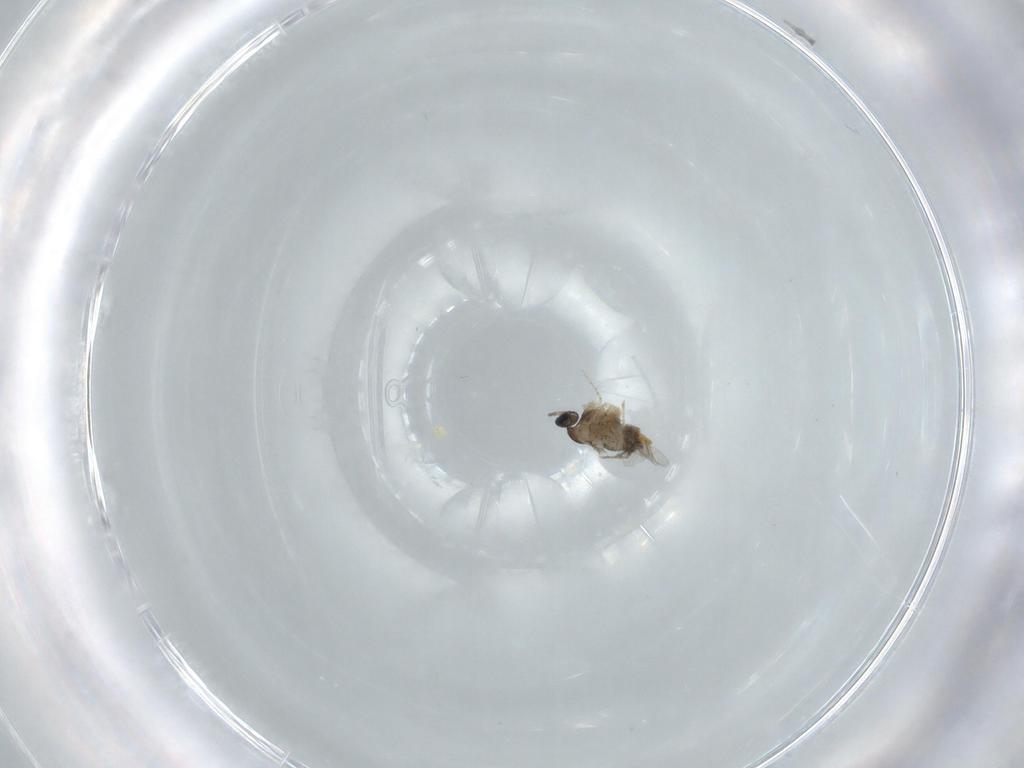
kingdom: Animalia
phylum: Arthropoda
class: Insecta
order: Diptera
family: Cecidomyiidae
